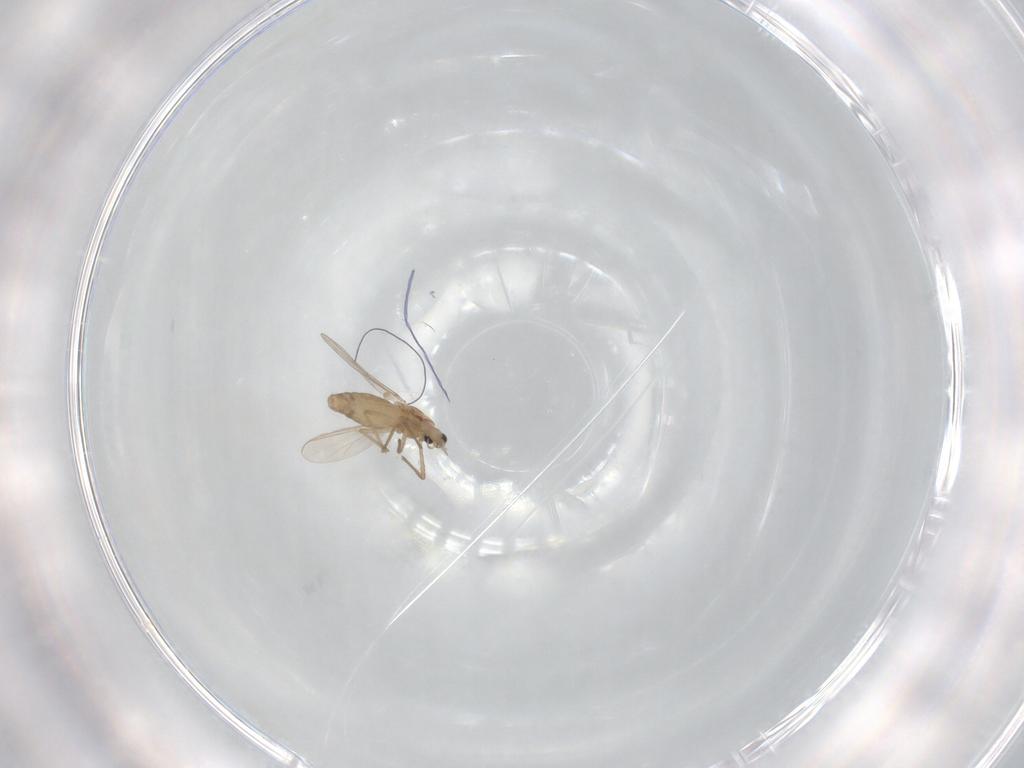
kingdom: Animalia
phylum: Arthropoda
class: Insecta
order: Diptera
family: Chironomidae
